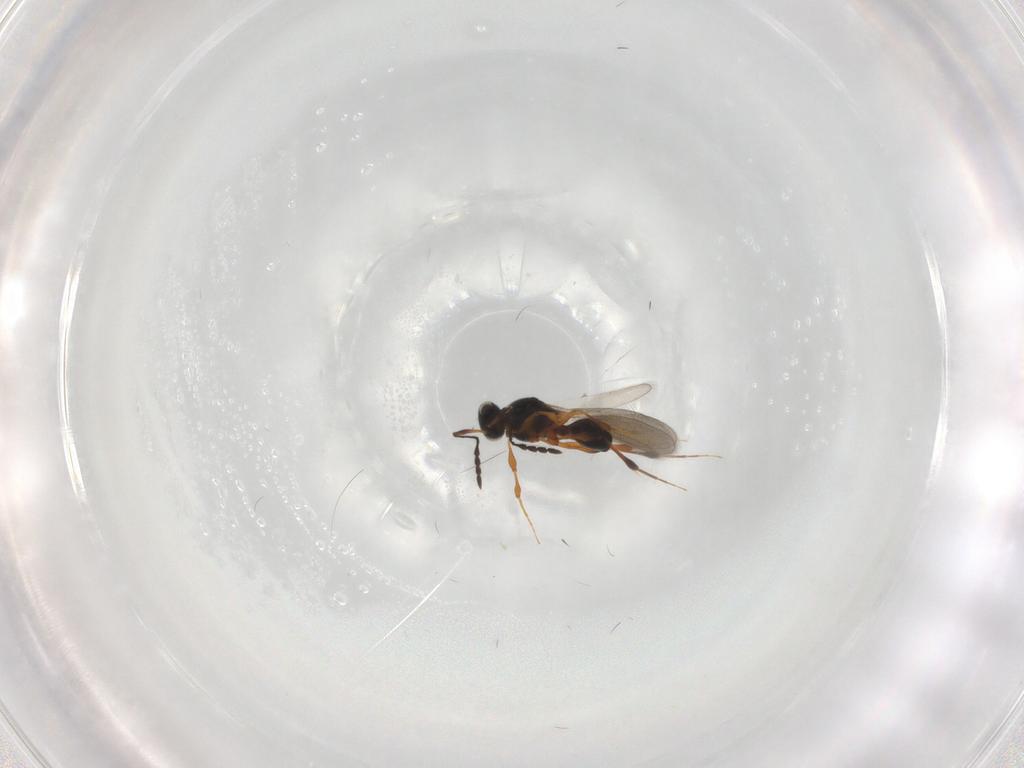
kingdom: Animalia
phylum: Arthropoda
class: Insecta
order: Hymenoptera
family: Platygastridae
